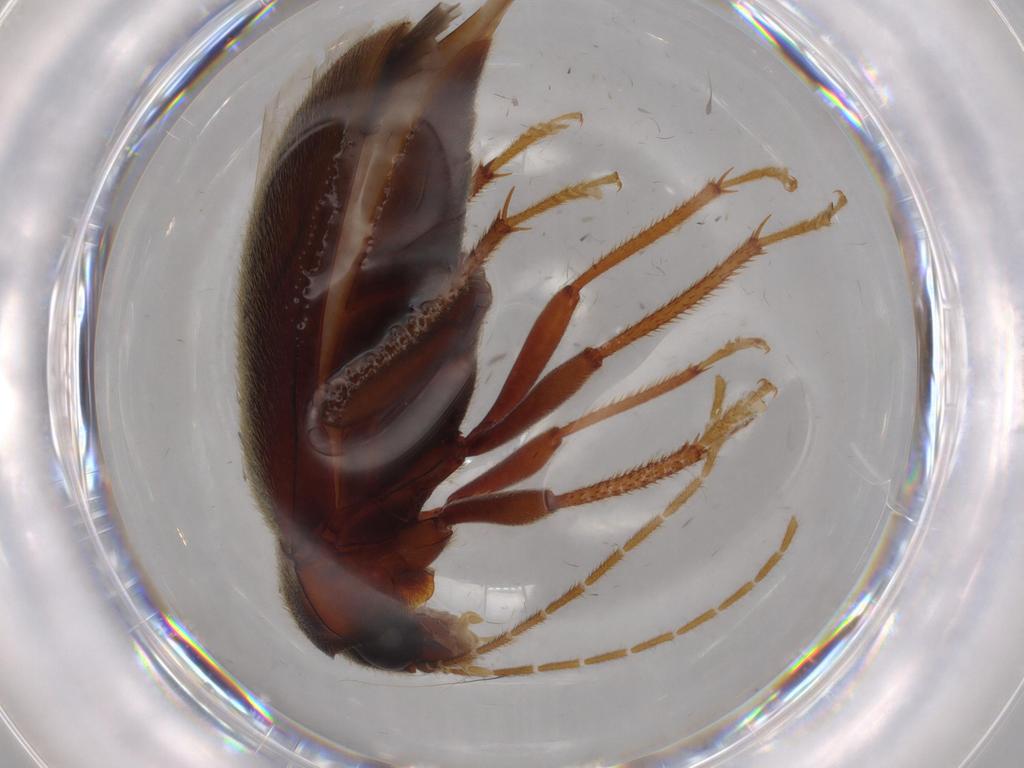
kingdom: Animalia
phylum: Arthropoda
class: Insecta
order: Coleoptera
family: Ptilodactylidae
